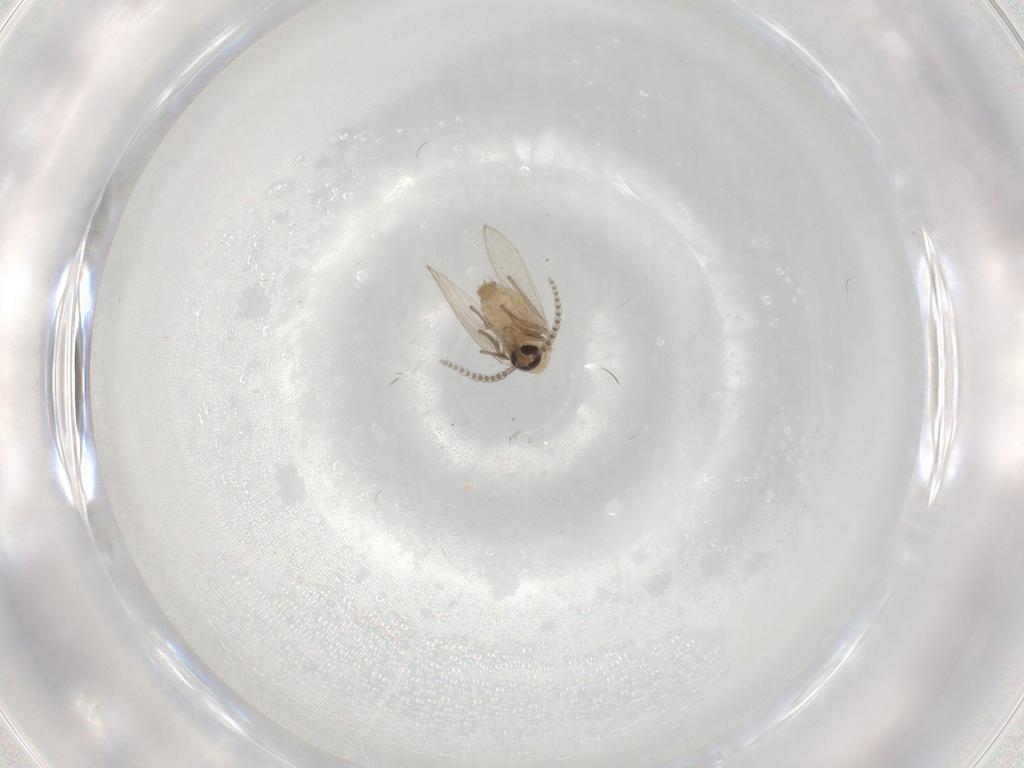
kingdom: Animalia
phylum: Arthropoda
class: Insecta
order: Diptera
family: Psychodidae
